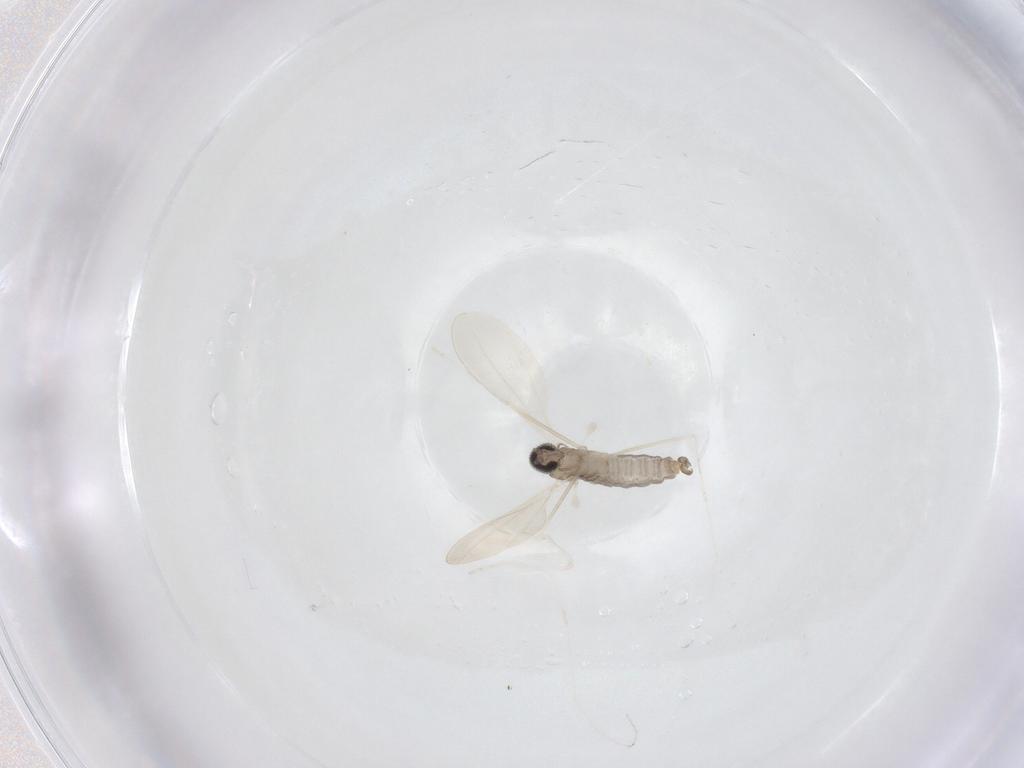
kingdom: Animalia
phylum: Arthropoda
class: Insecta
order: Diptera
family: Cecidomyiidae
